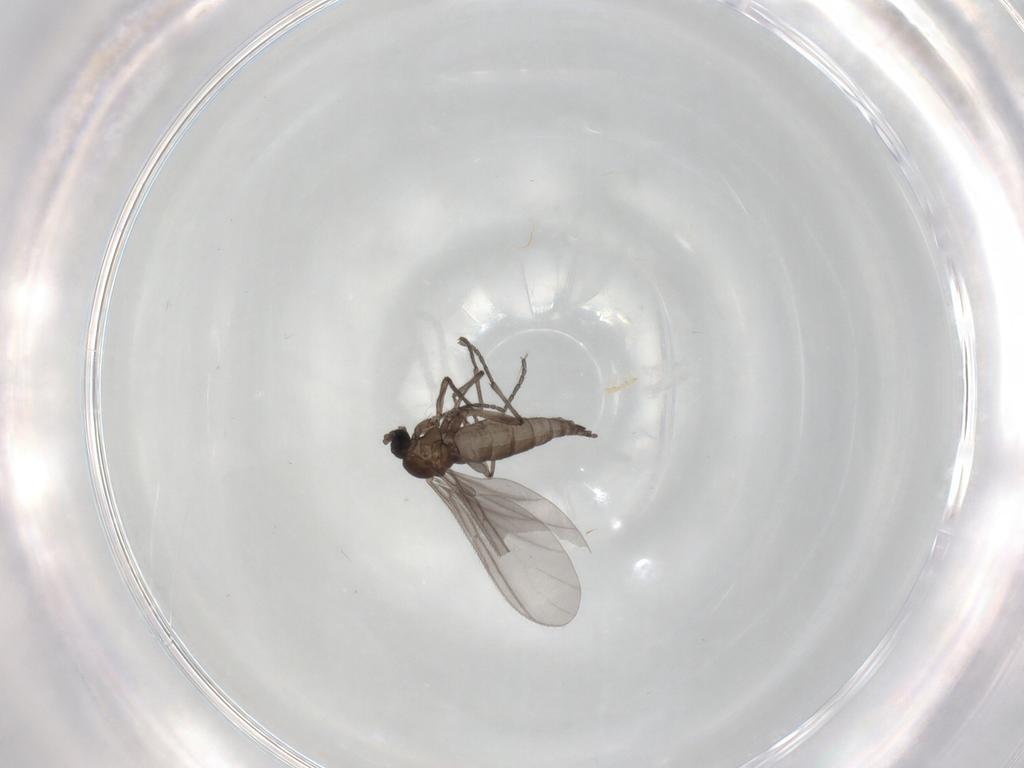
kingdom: Animalia
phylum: Arthropoda
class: Insecta
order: Diptera
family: Sciaridae
